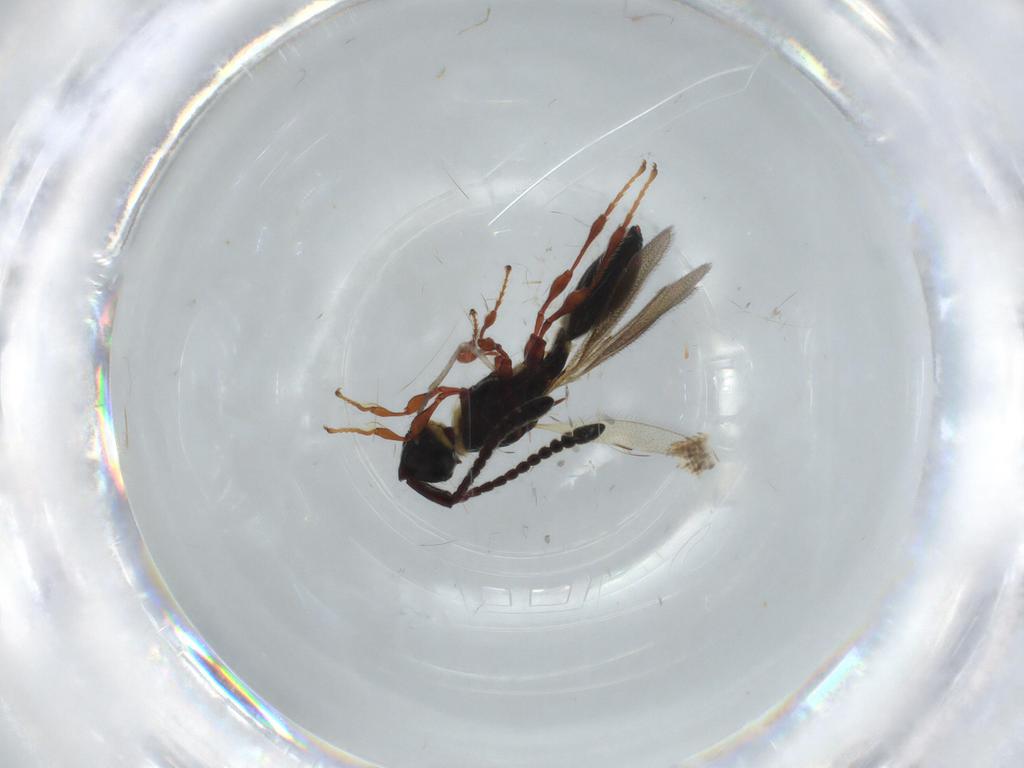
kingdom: Animalia
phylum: Arthropoda
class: Insecta
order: Hymenoptera
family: Diapriidae
